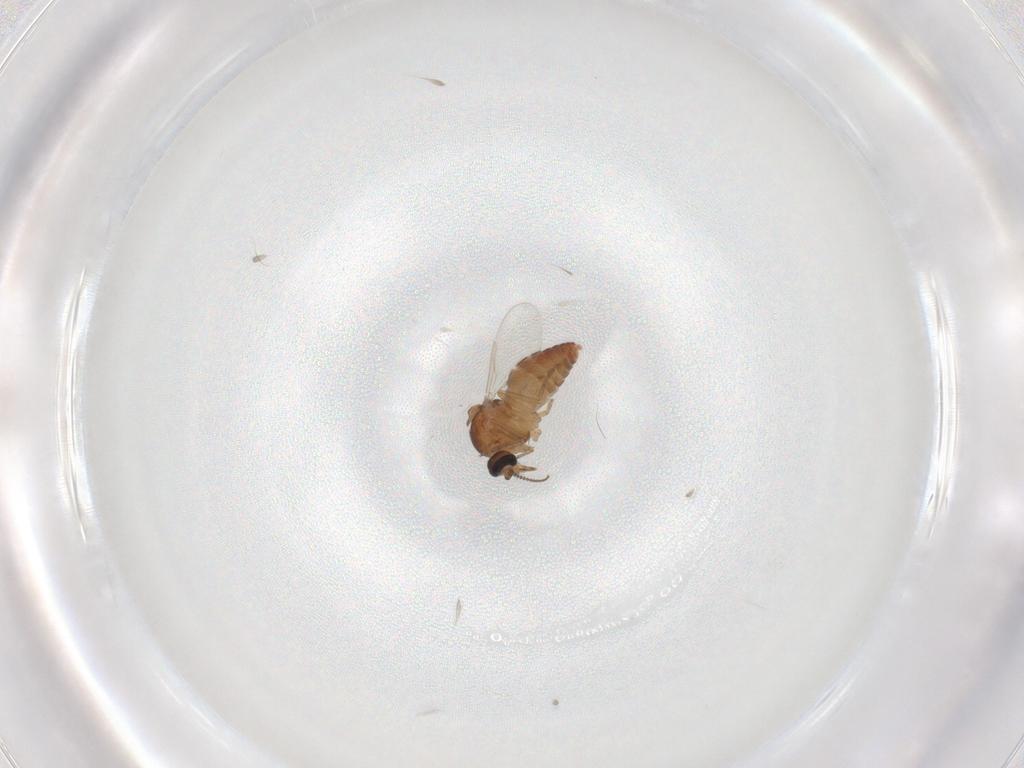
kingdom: Animalia
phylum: Arthropoda
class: Insecta
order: Diptera
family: Ceratopogonidae
